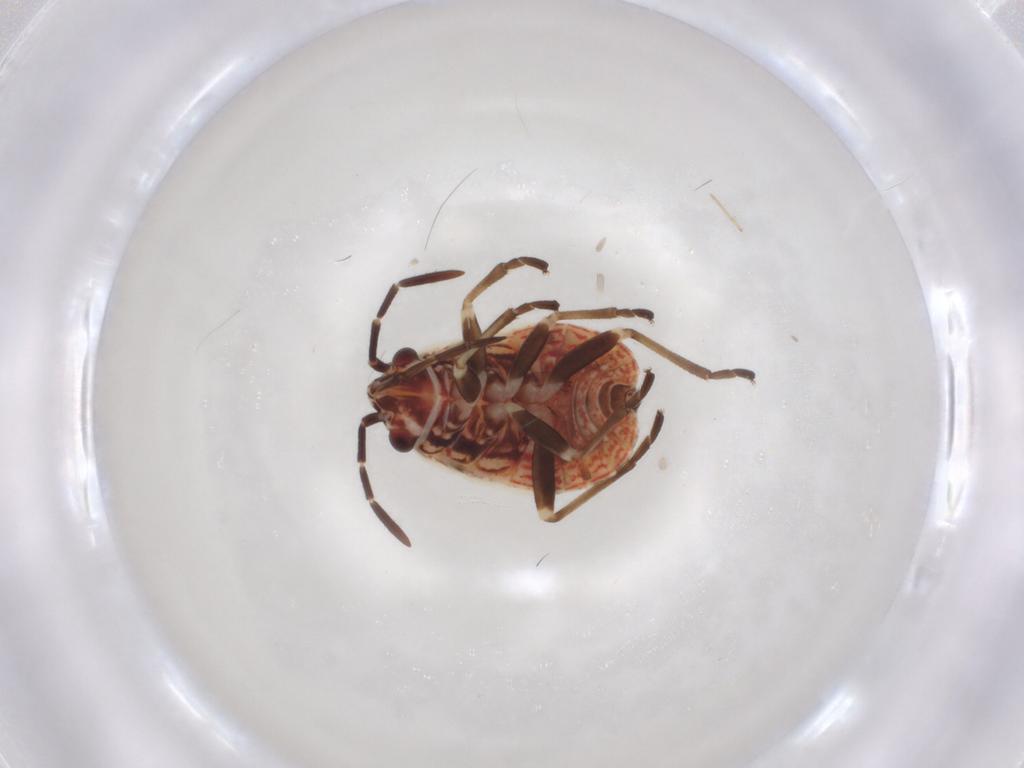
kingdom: Animalia
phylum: Arthropoda
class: Insecta
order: Hemiptera
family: Lygaeidae
